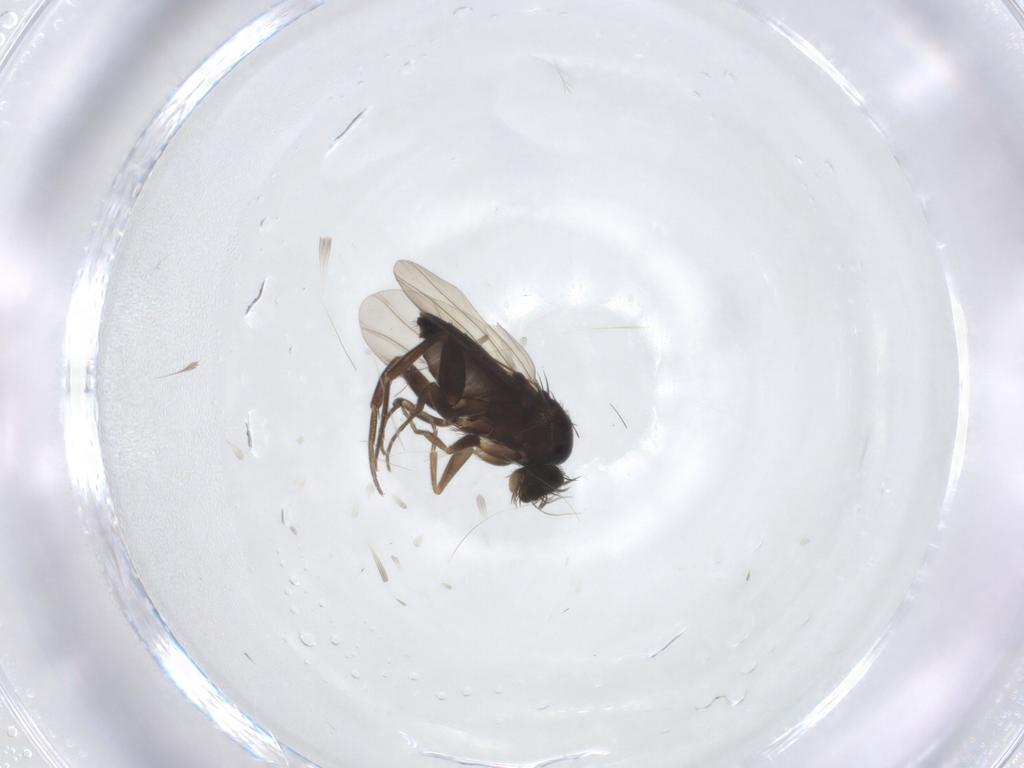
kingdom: Animalia
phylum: Arthropoda
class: Insecta
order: Diptera
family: Phoridae
